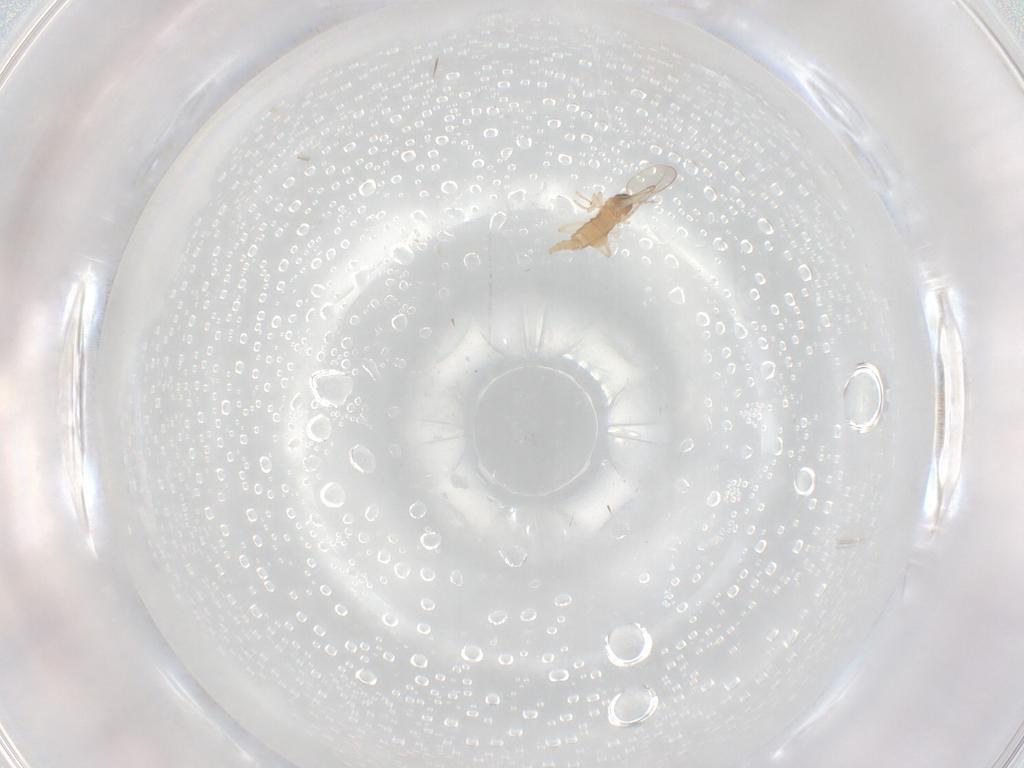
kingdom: Animalia
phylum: Arthropoda
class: Insecta
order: Diptera
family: Cecidomyiidae
